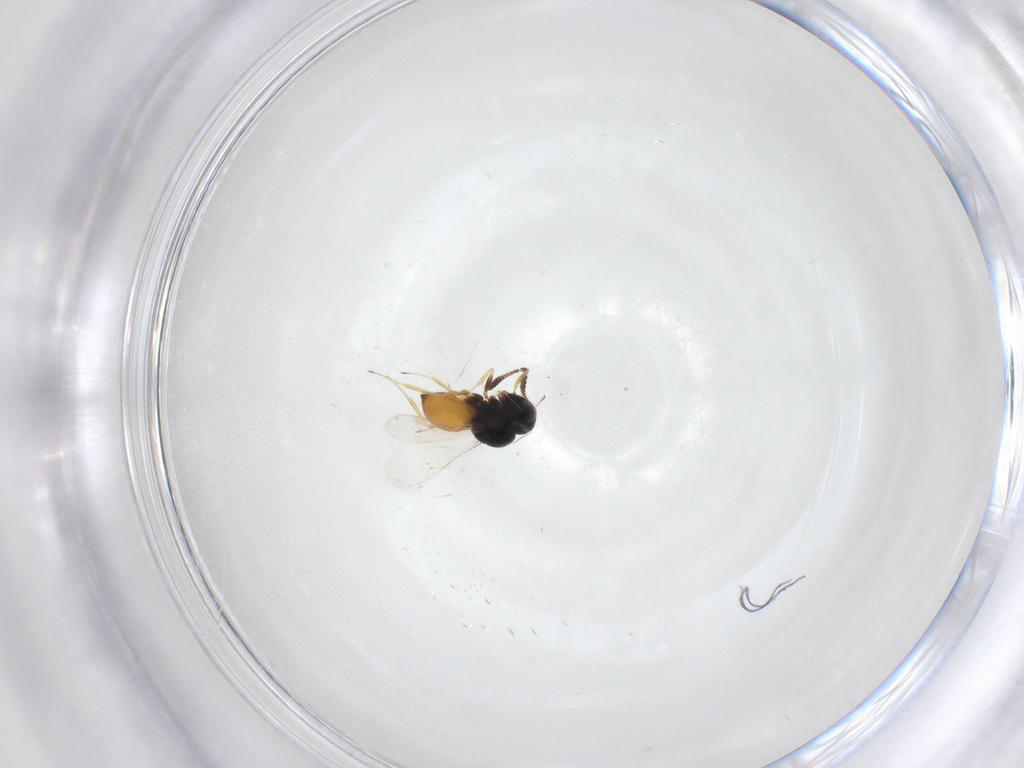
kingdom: Animalia
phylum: Arthropoda
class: Insecta
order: Hymenoptera
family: Scelionidae
